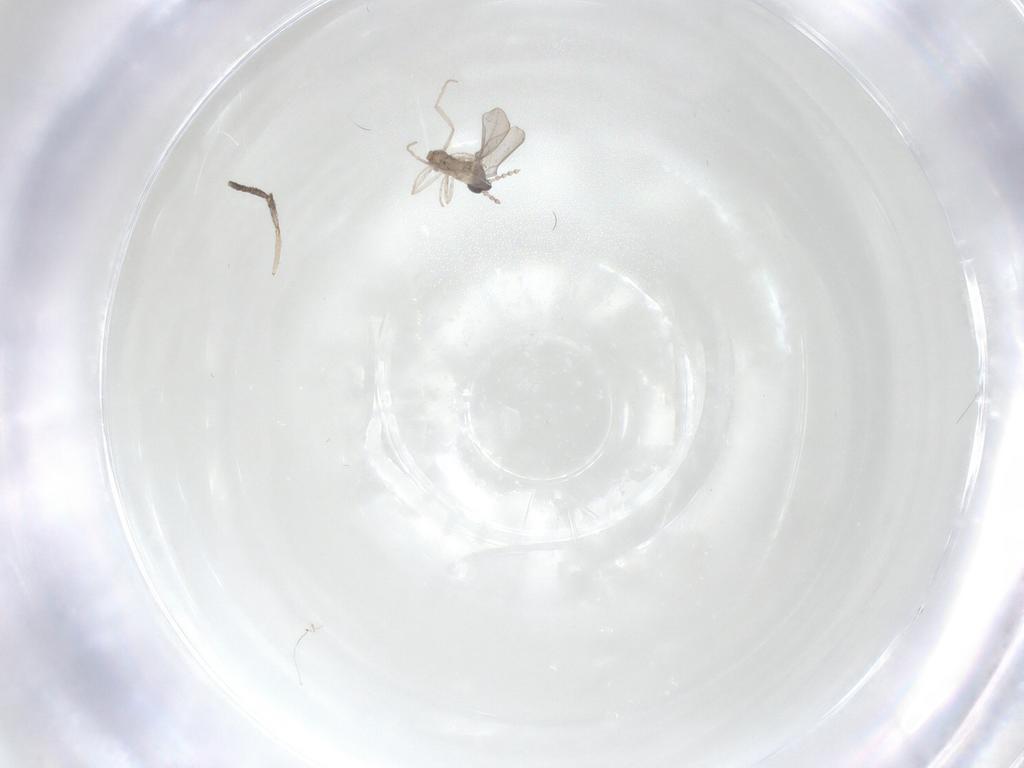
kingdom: Animalia
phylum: Arthropoda
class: Insecta
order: Diptera
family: Cecidomyiidae
